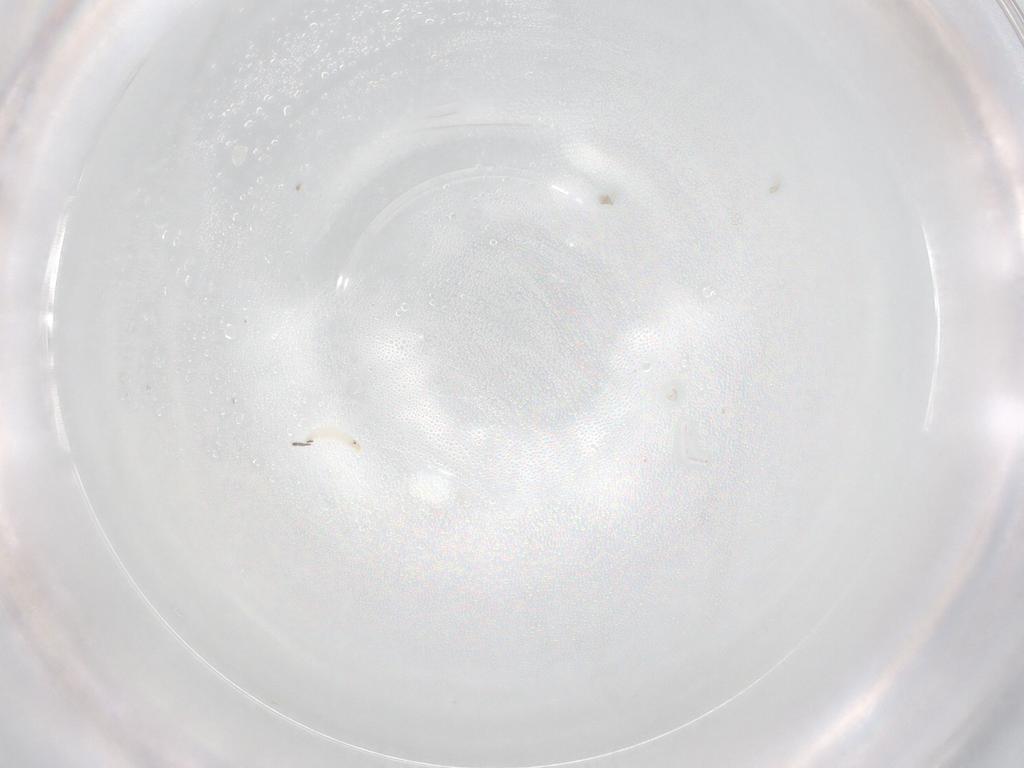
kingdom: Animalia
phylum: Arthropoda
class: Insecta
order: Diptera
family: Stratiomyidae
